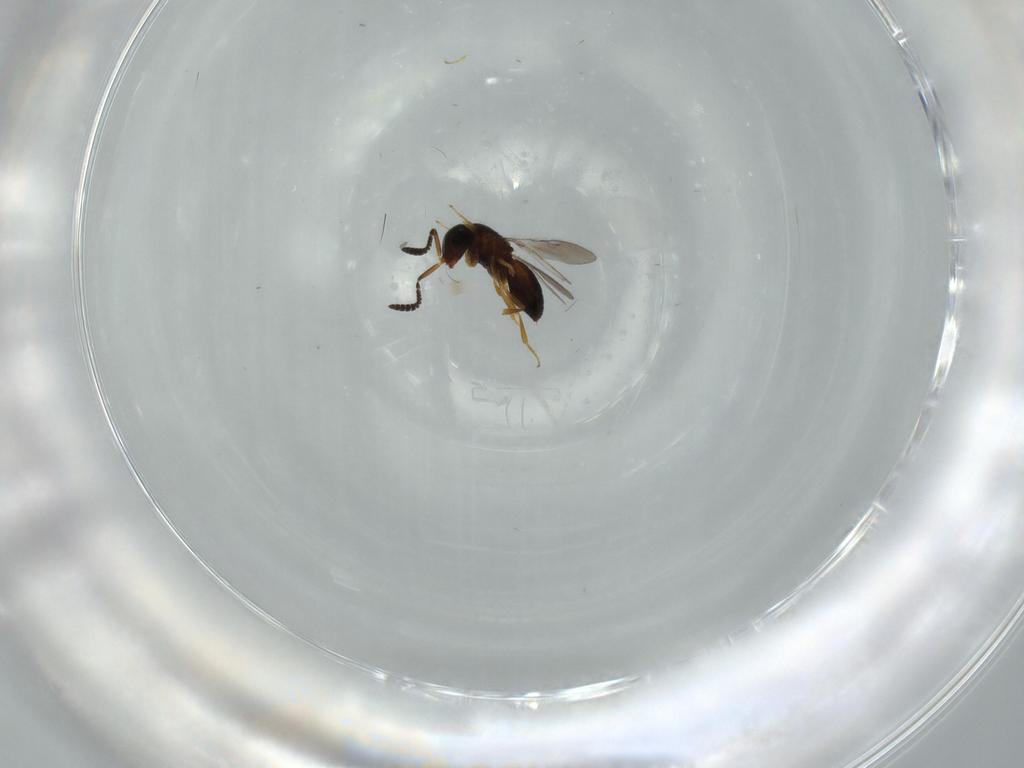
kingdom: Animalia
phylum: Arthropoda
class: Insecta
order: Hymenoptera
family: Scelionidae
